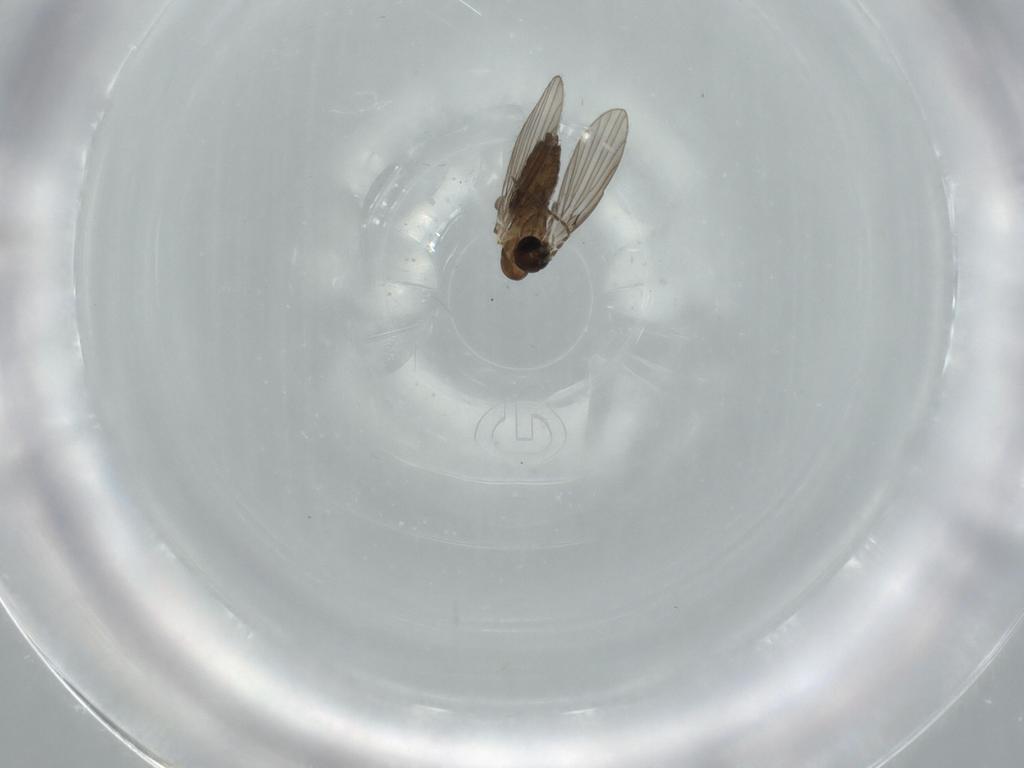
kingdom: Animalia
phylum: Arthropoda
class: Insecta
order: Diptera
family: Psychodidae
